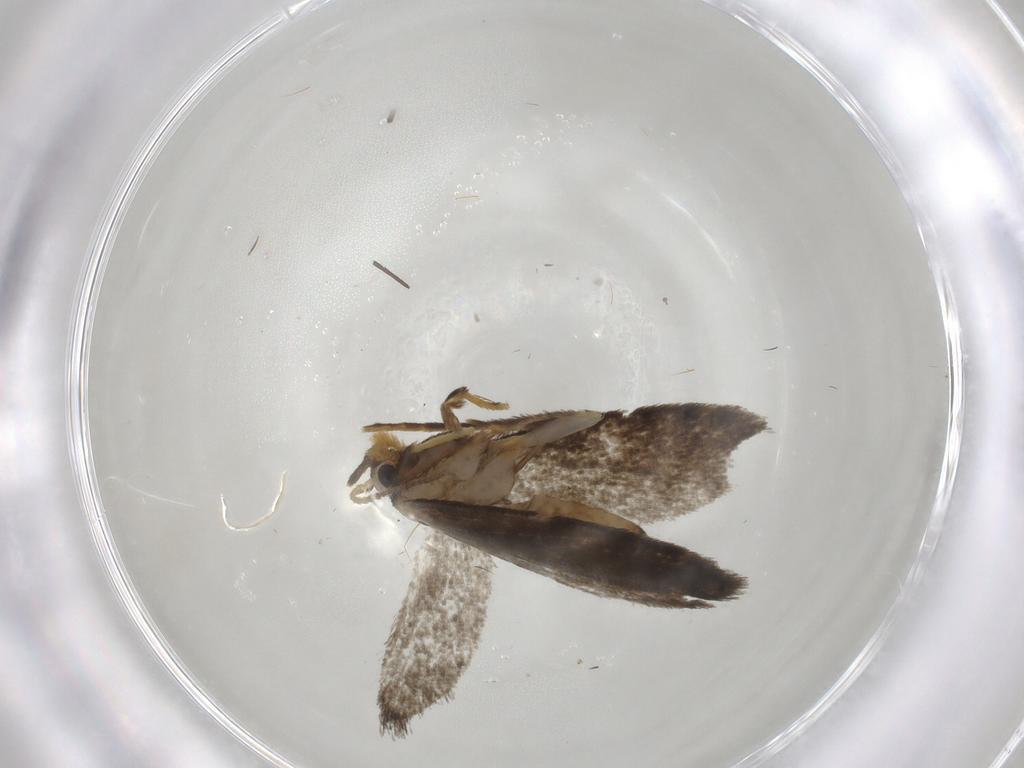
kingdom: Animalia
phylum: Arthropoda
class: Insecta
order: Lepidoptera
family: Psychidae
